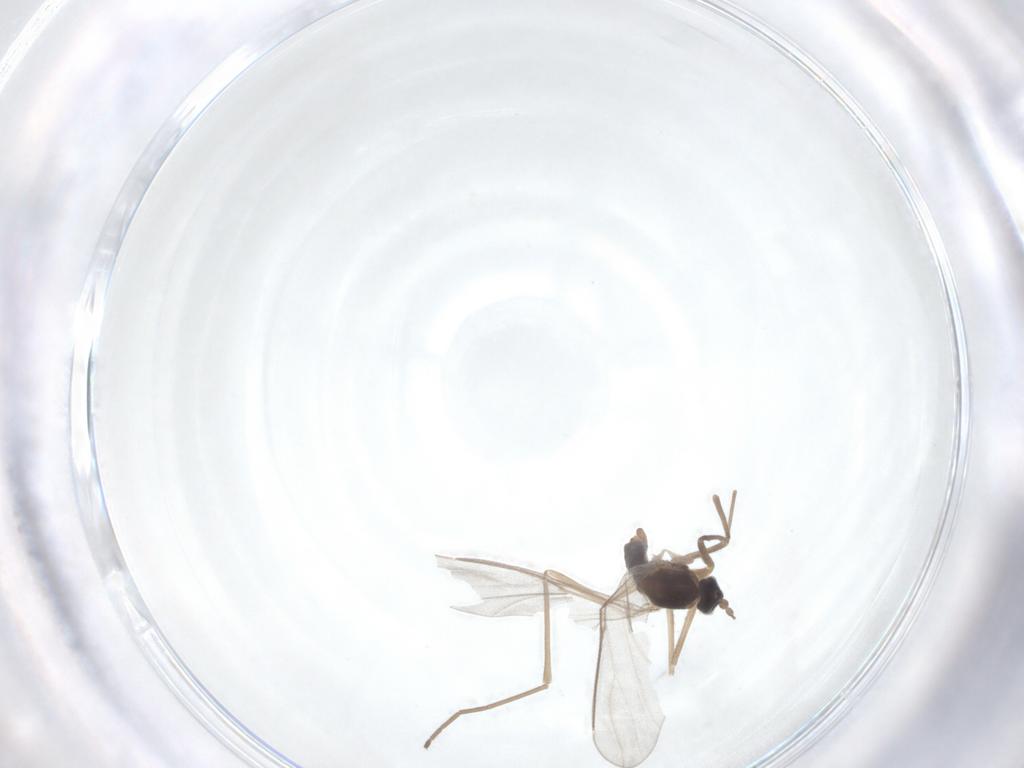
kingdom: Animalia
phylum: Arthropoda
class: Insecta
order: Diptera
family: Cecidomyiidae
